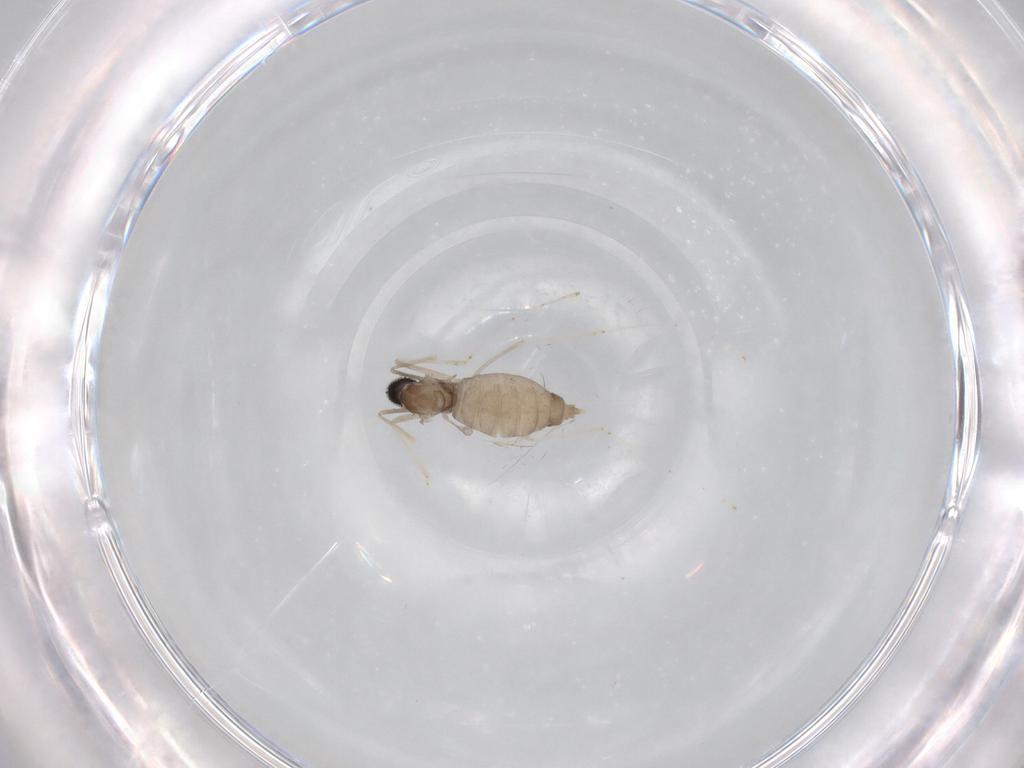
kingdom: Animalia
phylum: Arthropoda
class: Insecta
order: Diptera
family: Cecidomyiidae
